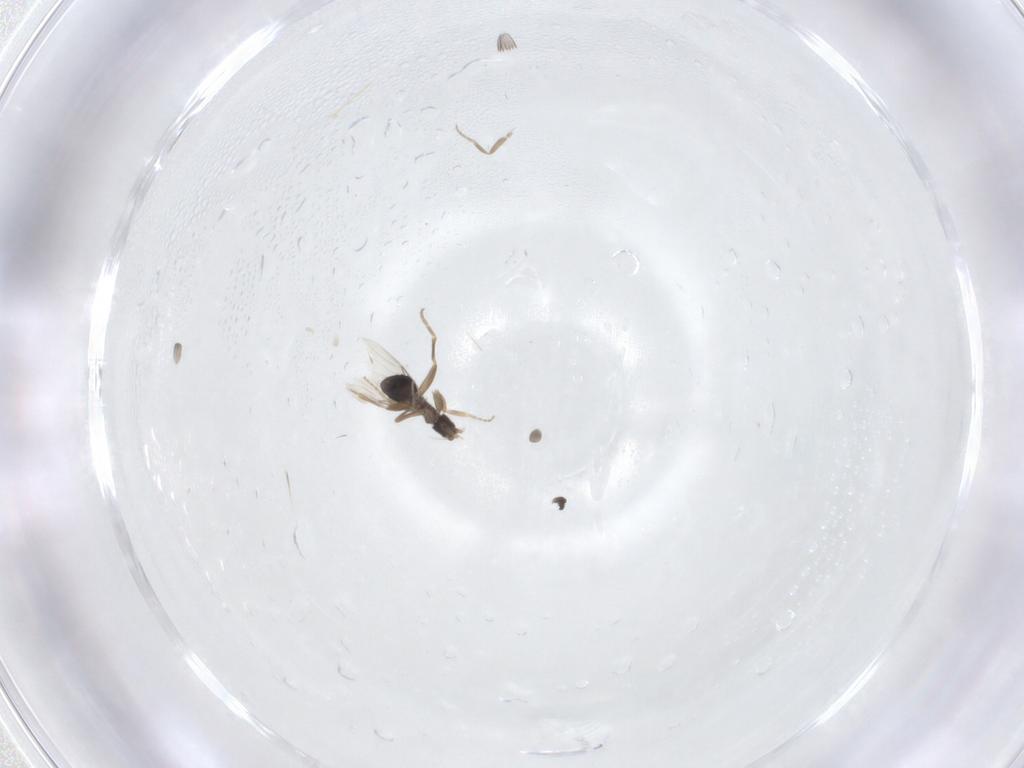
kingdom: Animalia
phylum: Arthropoda
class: Insecta
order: Diptera
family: Phoridae
